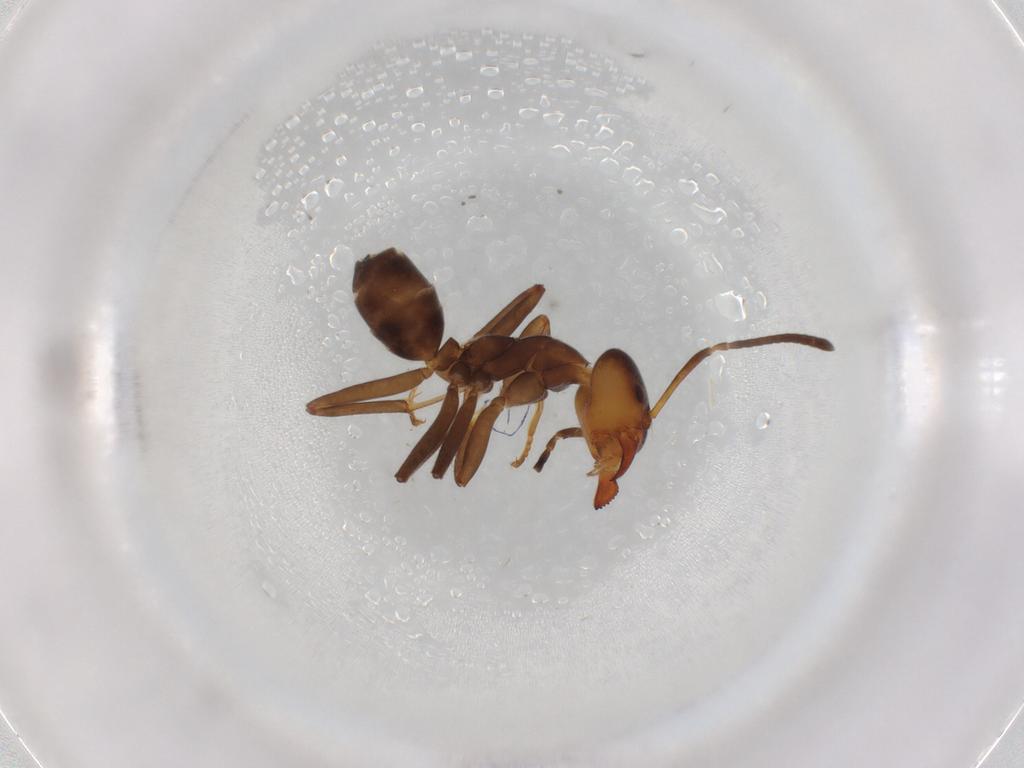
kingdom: Animalia
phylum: Arthropoda
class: Insecta
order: Hymenoptera
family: Formicidae
